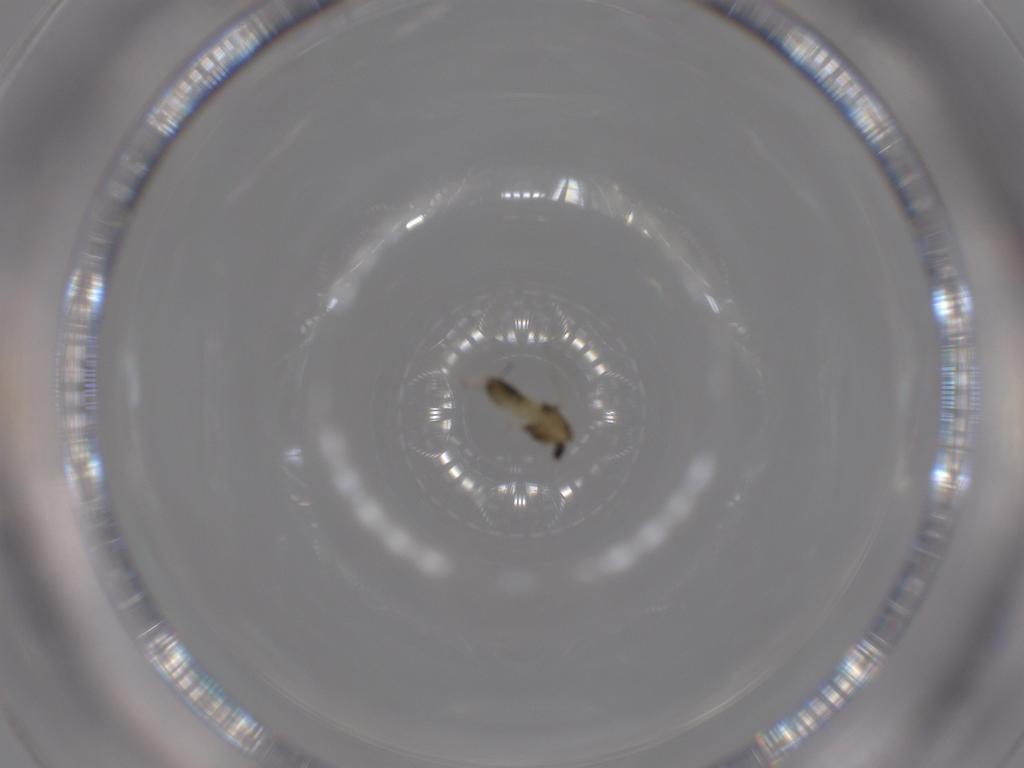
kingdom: Animalia
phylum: Arthropoda
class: Insecta
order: Diptera
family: Chironomidae
